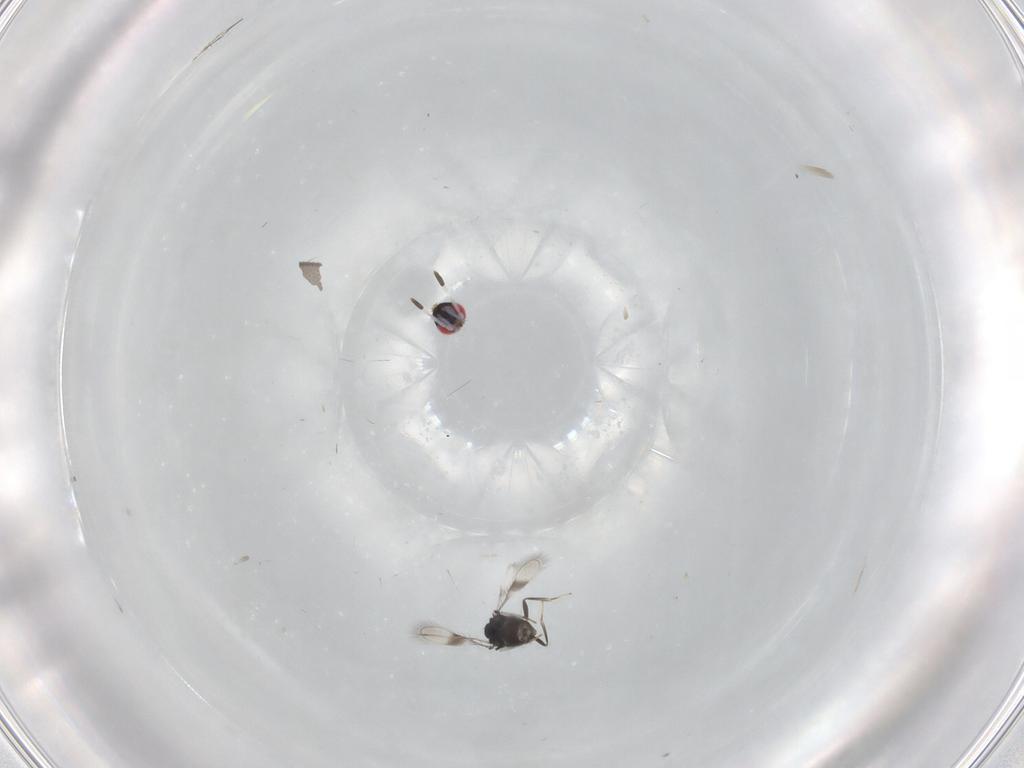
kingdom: Animalia
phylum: Arthropoda
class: Insecta
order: Hymenoptera
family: Azotidae
